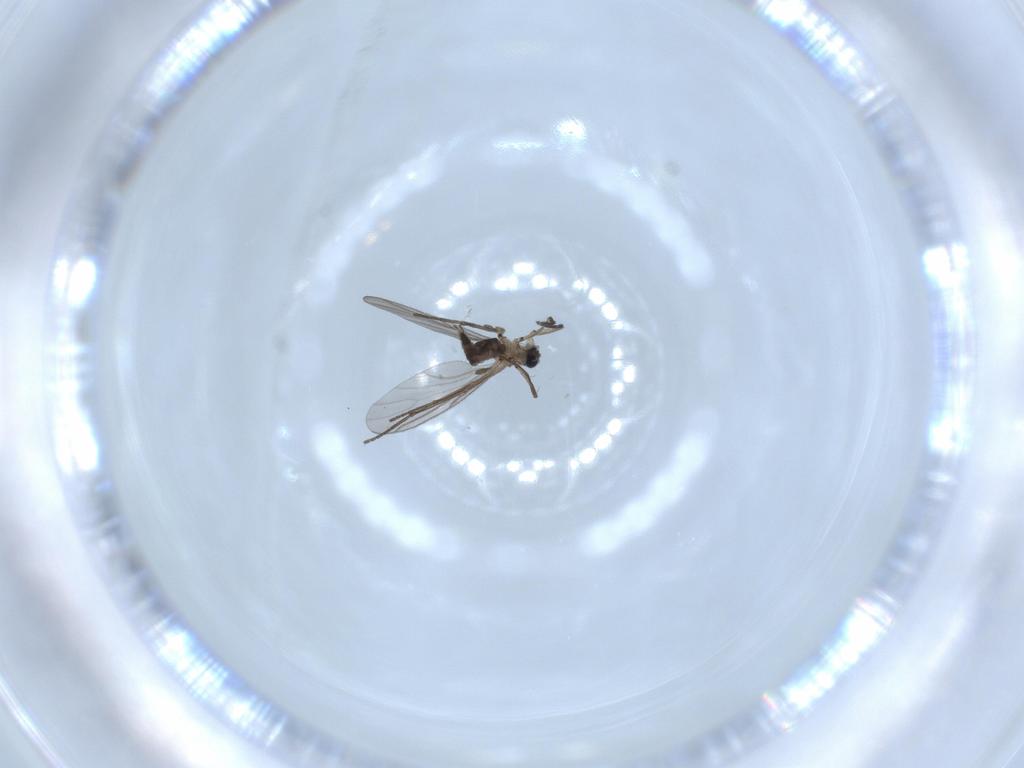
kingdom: Animalia
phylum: Arthropoda
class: Insecta
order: Diptera
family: Sciaridae
